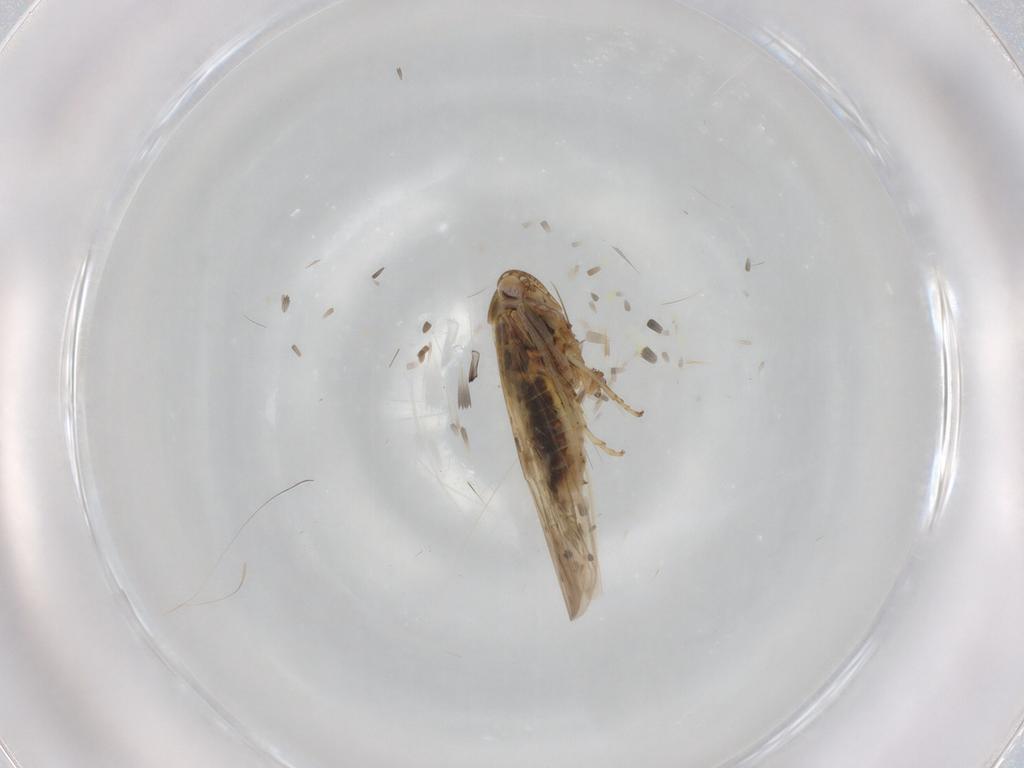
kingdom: Animalia
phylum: Arthropoda
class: Insecta
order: Hemiptera
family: Cicadellidae
